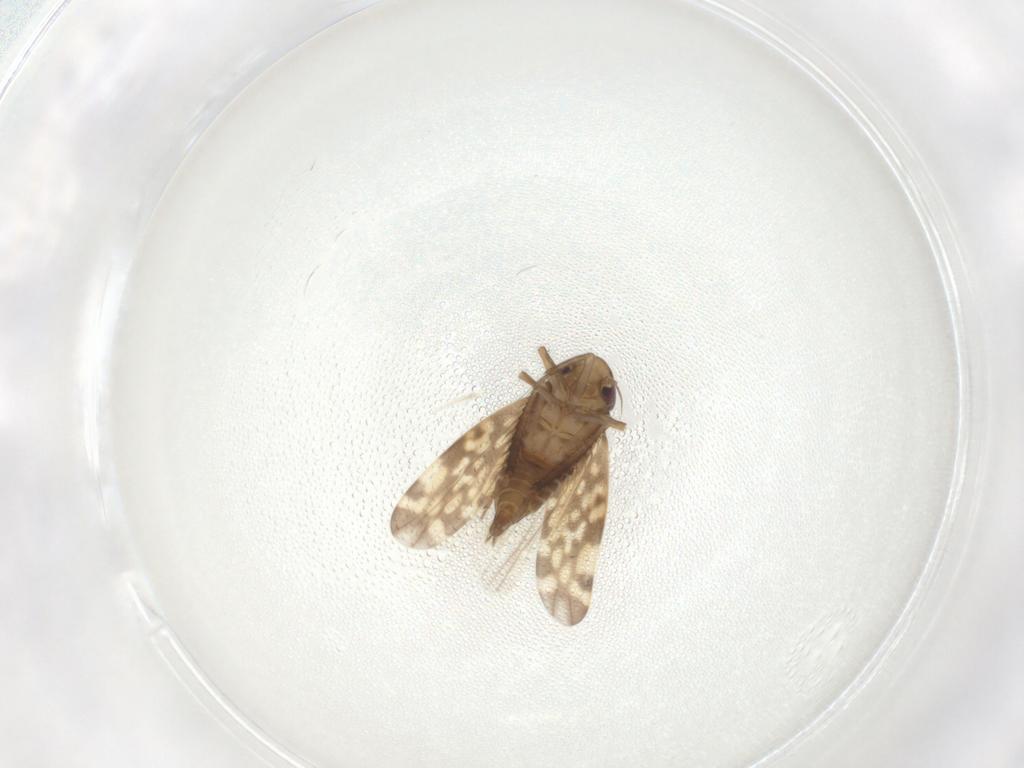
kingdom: Animalia
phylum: Arthropoda
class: Insecta
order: Hemiptera
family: Cicadellidae
